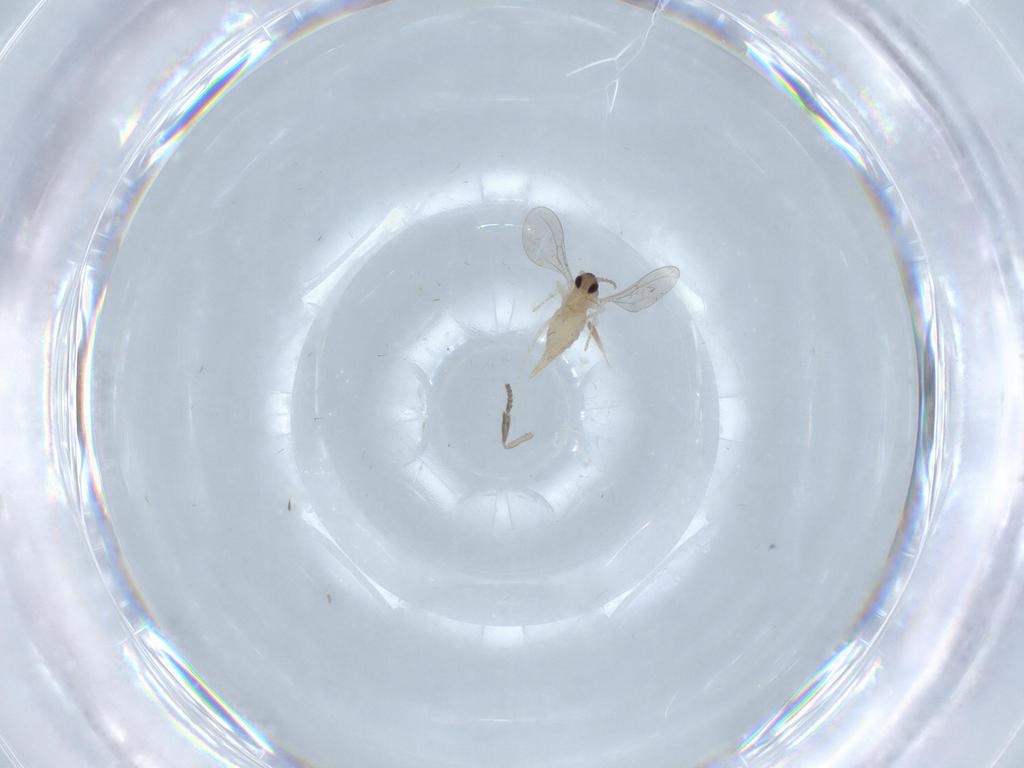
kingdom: Animalia
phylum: Arthropoda
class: Insecta
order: Diptera
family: Cecidomyiidae
